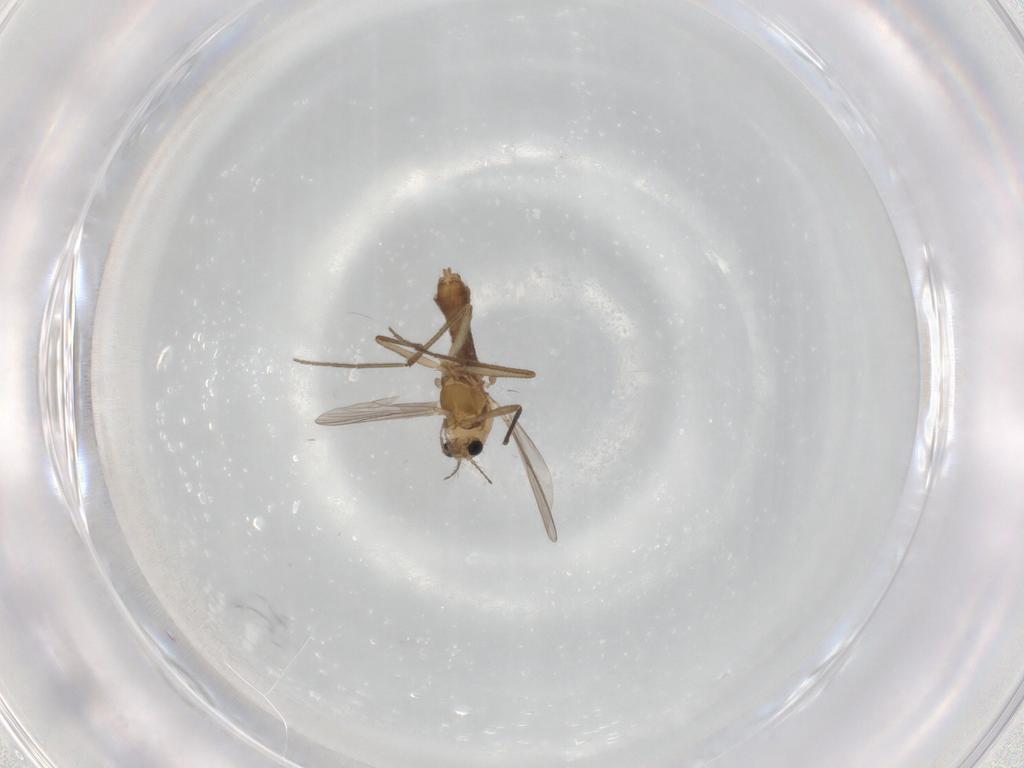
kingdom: Animalia
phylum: Arthropoda
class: Insecta
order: Diptera
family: Chironomidae
